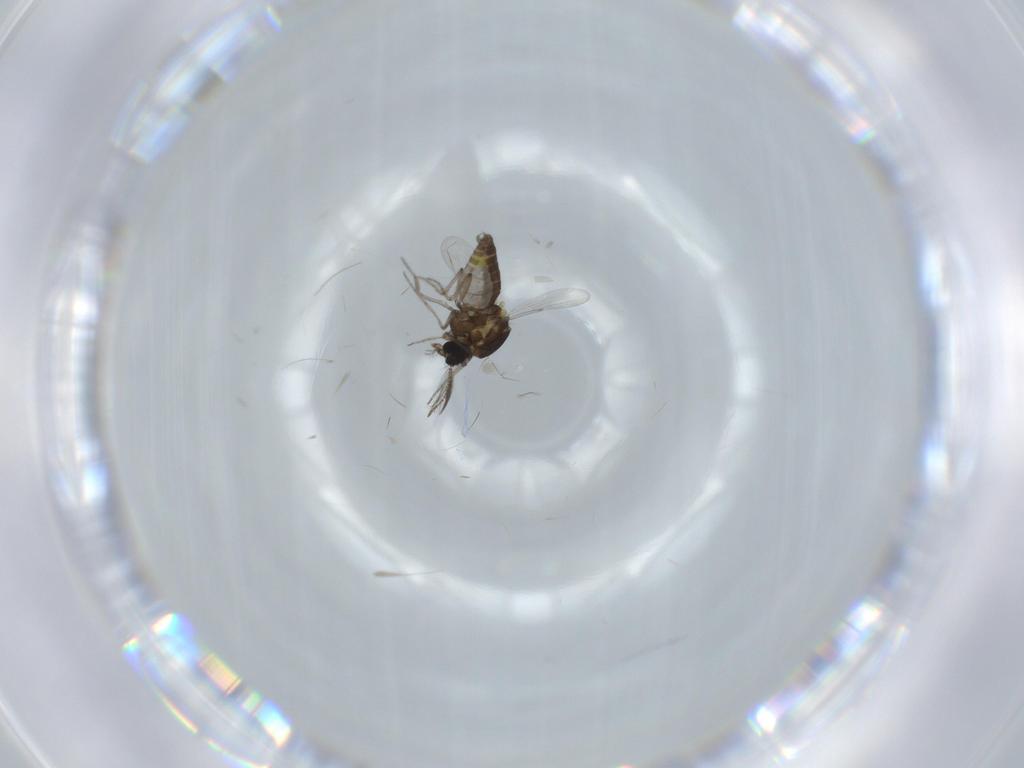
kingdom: Animalia
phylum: Arthropoda
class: Insecta
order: Diptera
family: Ceratopogonidae
